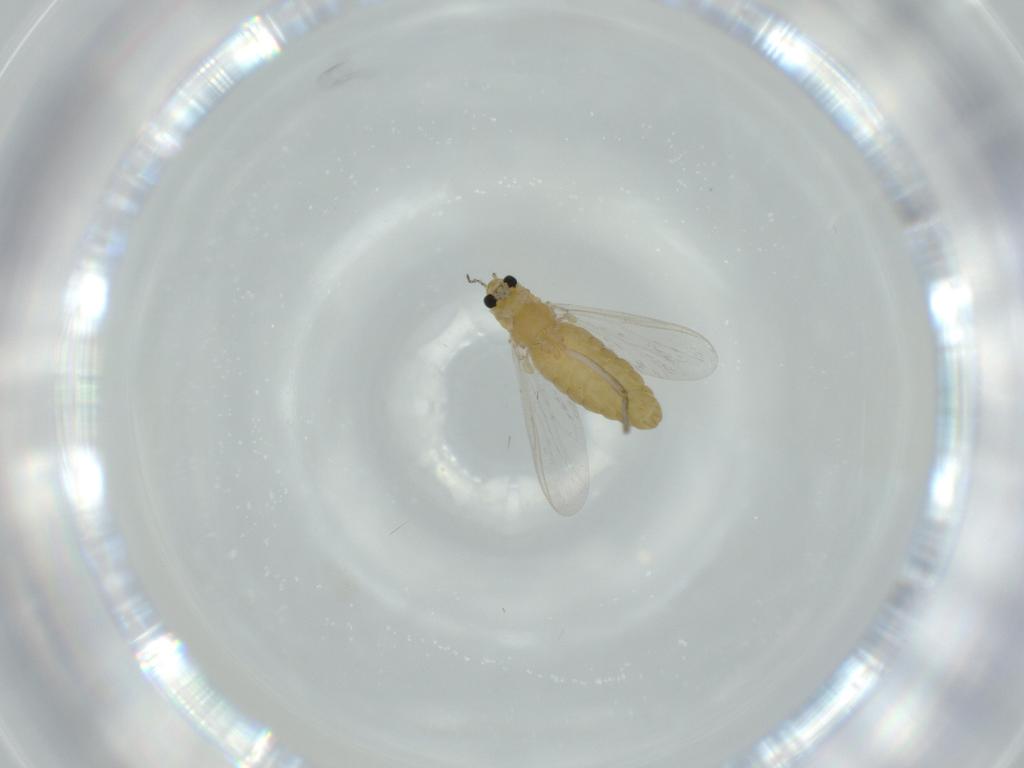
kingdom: Animalia
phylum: Arthropoda
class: Insecta
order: Diptera
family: Chironomidae
